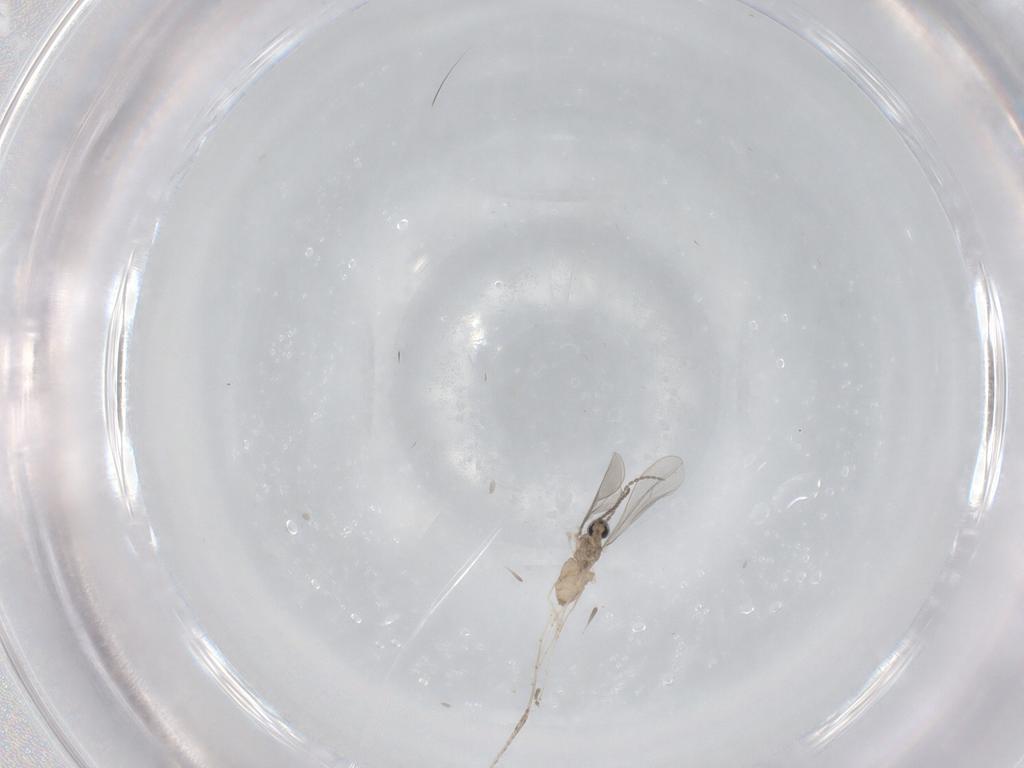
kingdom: Animalia
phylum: Arthropoda
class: Insecta
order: Diptera
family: Cecidomyiidae
